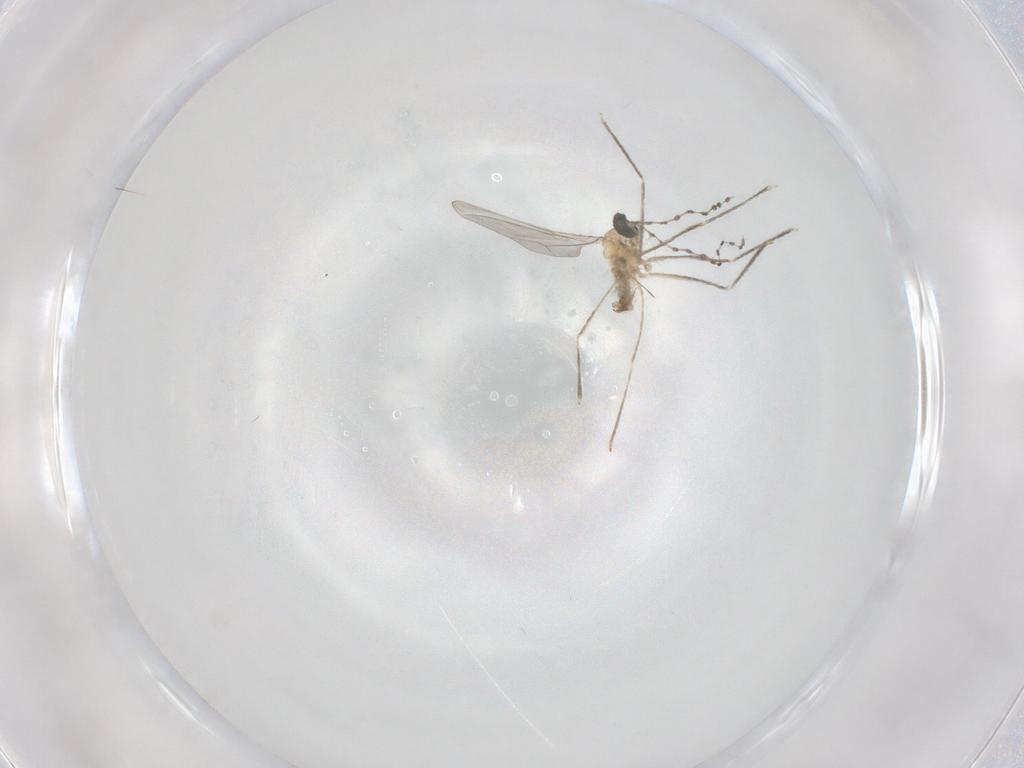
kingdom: Animalia
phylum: Arthropoda
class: Insecta
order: Diptera
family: Cecidomyiidae
